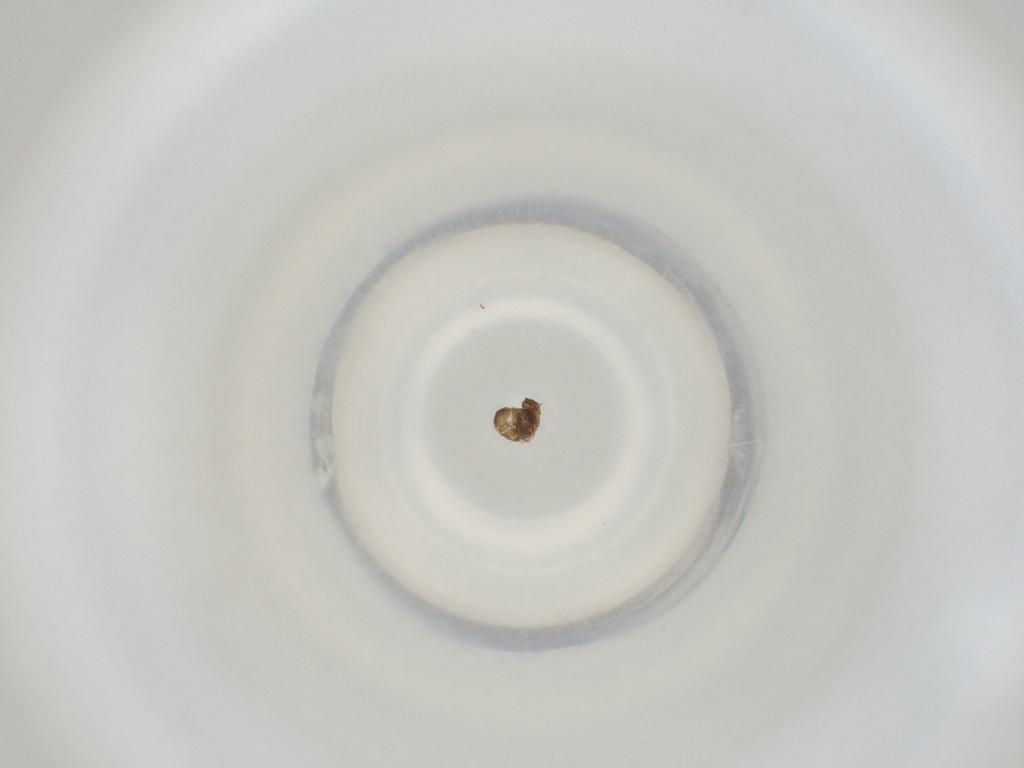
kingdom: Animalia
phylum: Arthropoda
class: Insecta
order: Diptera
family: Cecidomyiidae
